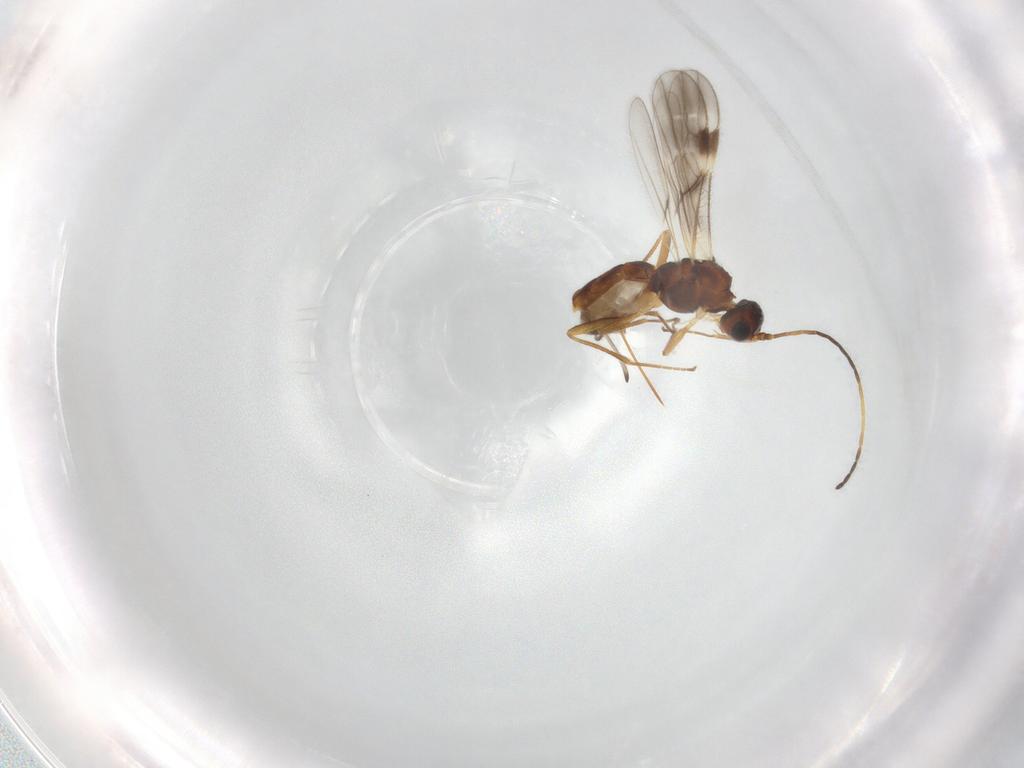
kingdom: Animalia
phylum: Arthropoda
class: Insecta
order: Hymenoptera
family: Braconidae
